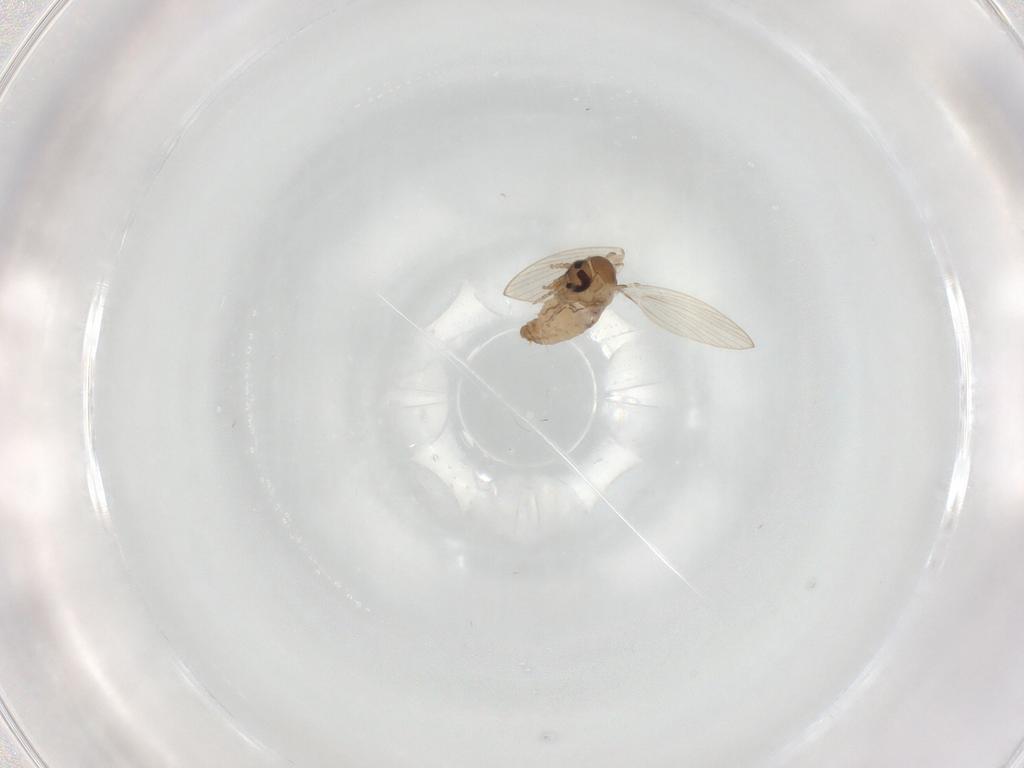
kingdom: Animalia
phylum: Arthropoda
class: Insecta
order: Diptera
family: Psychodidae
